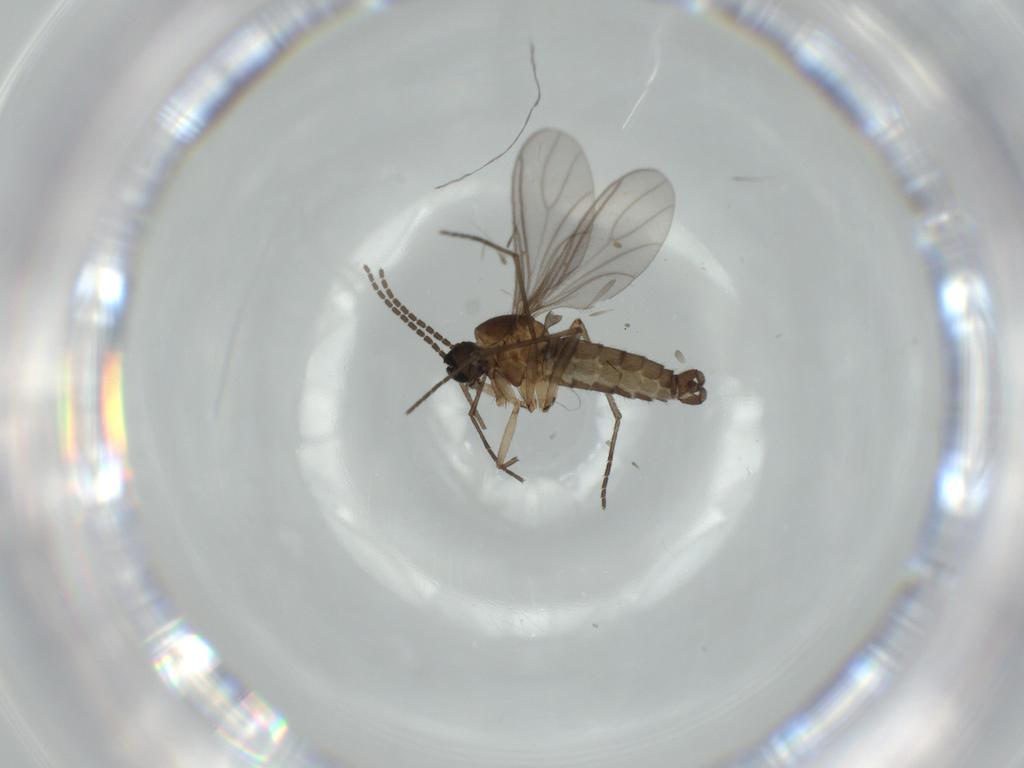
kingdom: Animalia
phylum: Arthropoda
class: Insecta
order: Diptera
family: Sciaridae
